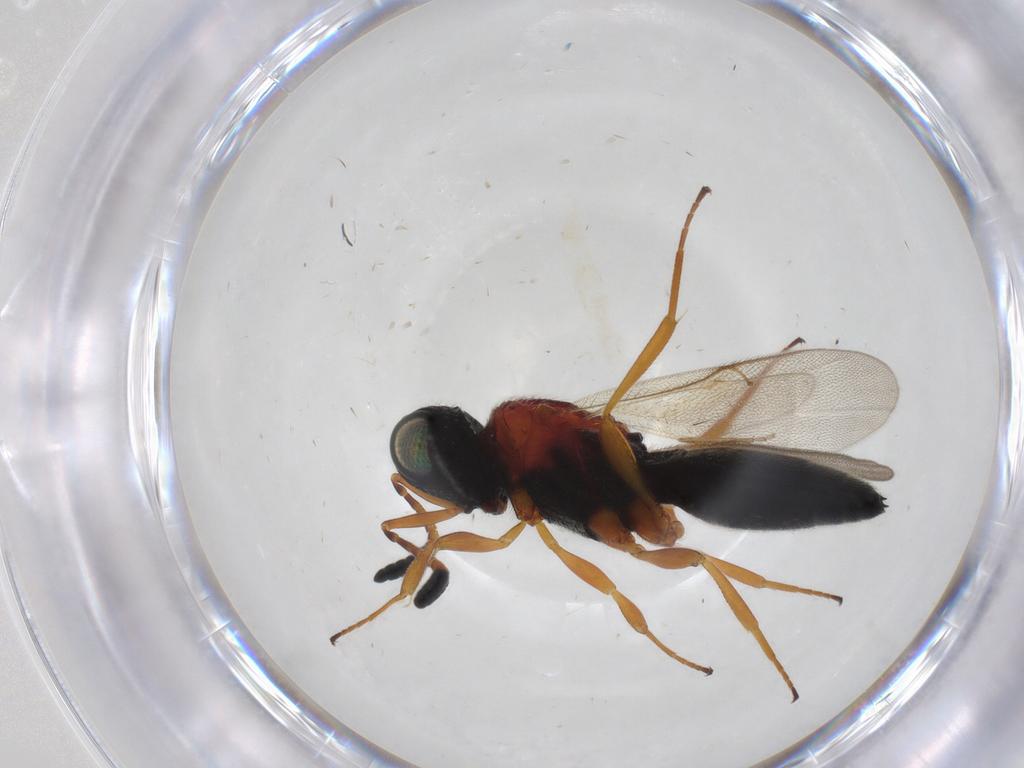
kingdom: Animalia
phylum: Arthropoda
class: Insecta
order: Hymenoptera
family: Scelionidae
